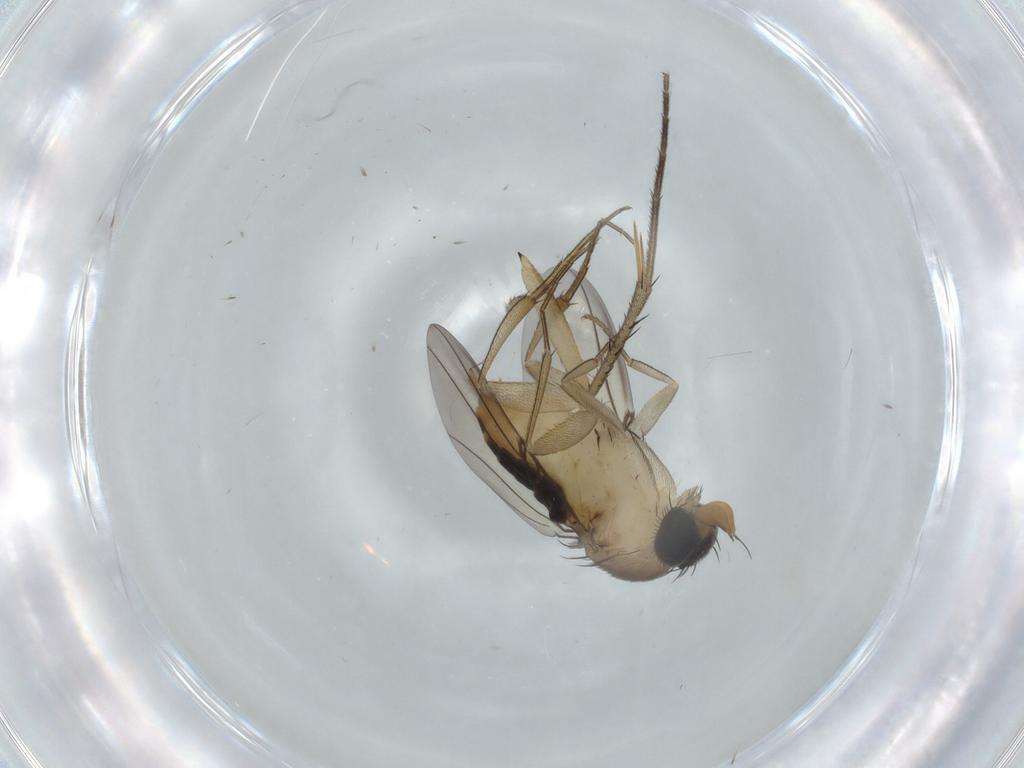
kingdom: Animalia
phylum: Arthropoda
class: Insecta
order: Diptera
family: Mycetophilidae
